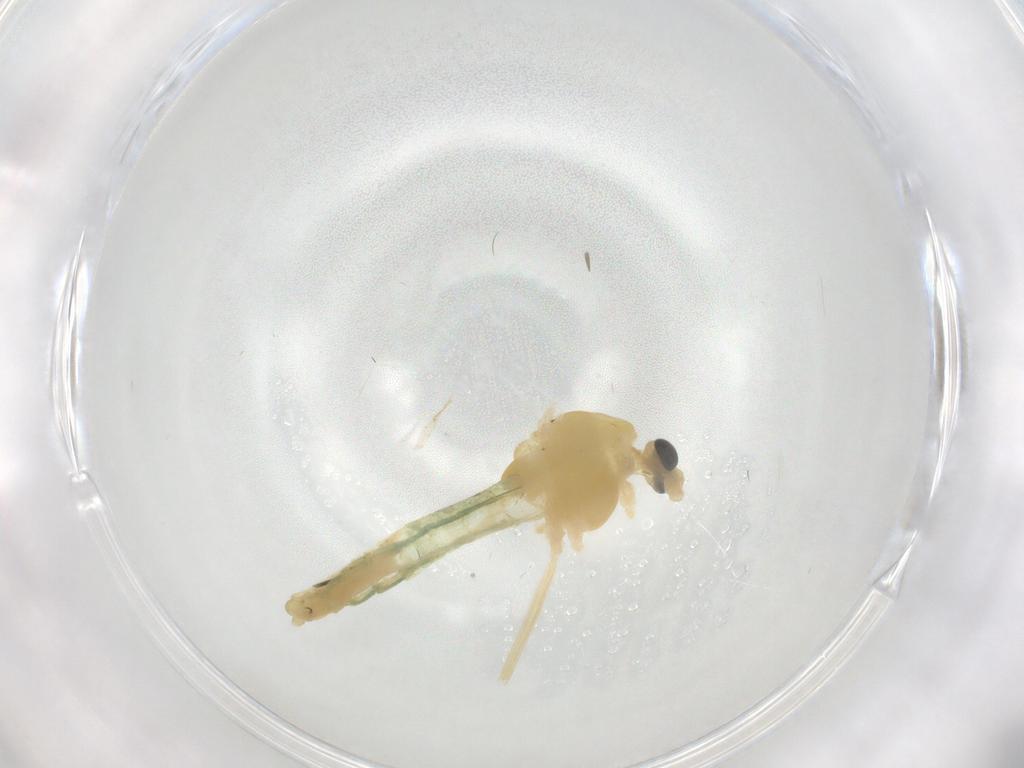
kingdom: Animalia
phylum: Arthropoda
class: Insecta
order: Diptera
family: Chironomidae
